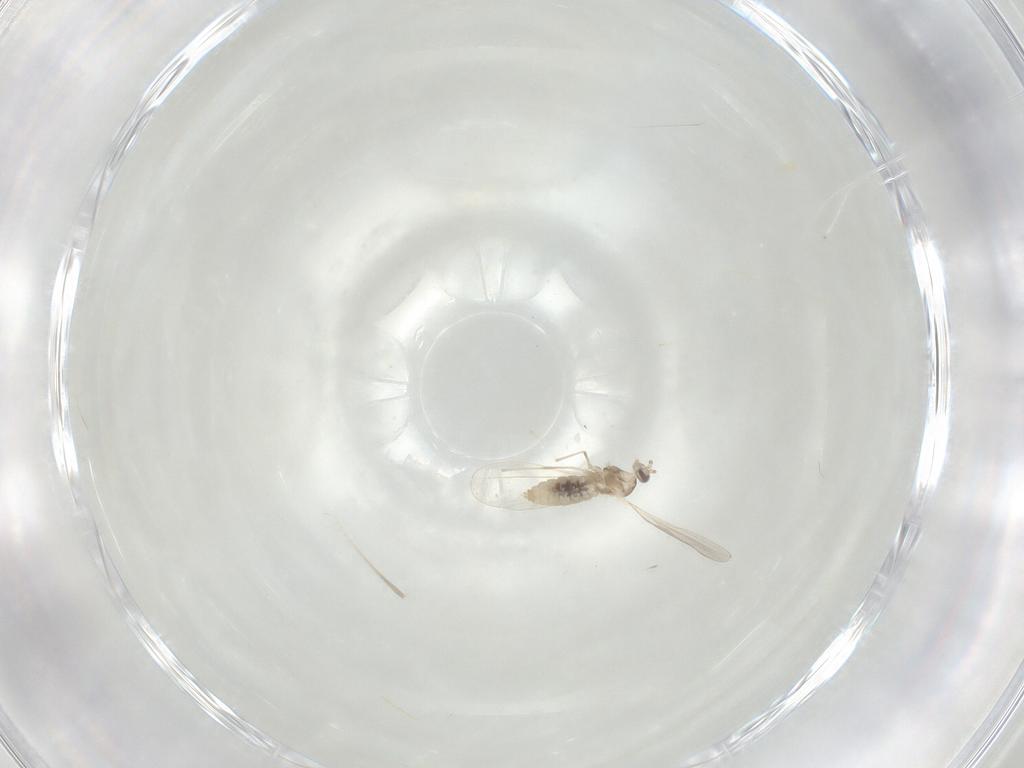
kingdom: Animalia
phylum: Arthropoda
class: Insecta
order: Diptera
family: Cecidomyiidae
